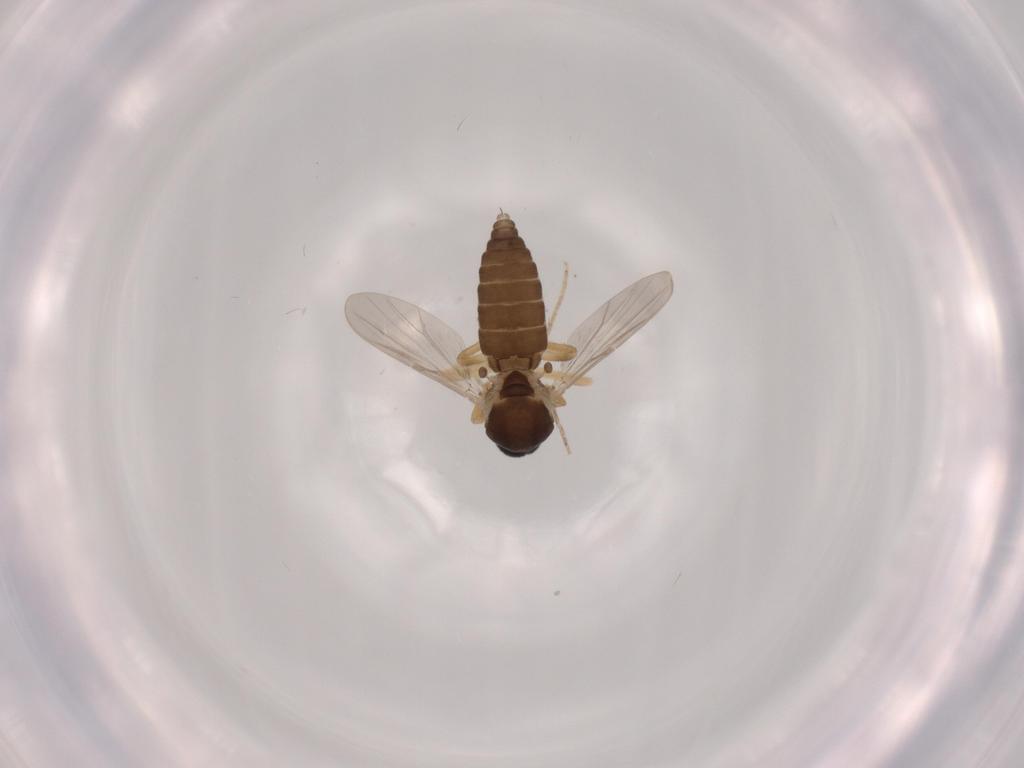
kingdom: Animalia
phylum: Arthropoda
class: Insecta
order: Diptera
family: Ceratopogonidae
